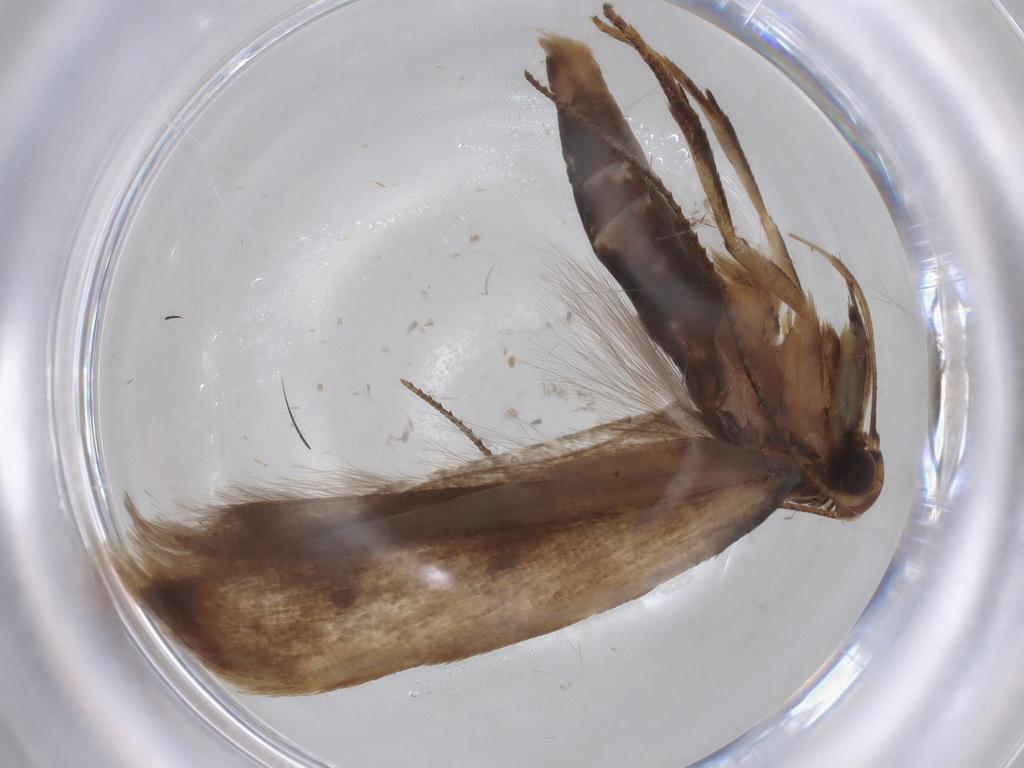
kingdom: Animalia
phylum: Arthropoda
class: Insecta
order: Lepidoptera
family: Gelechiidae
